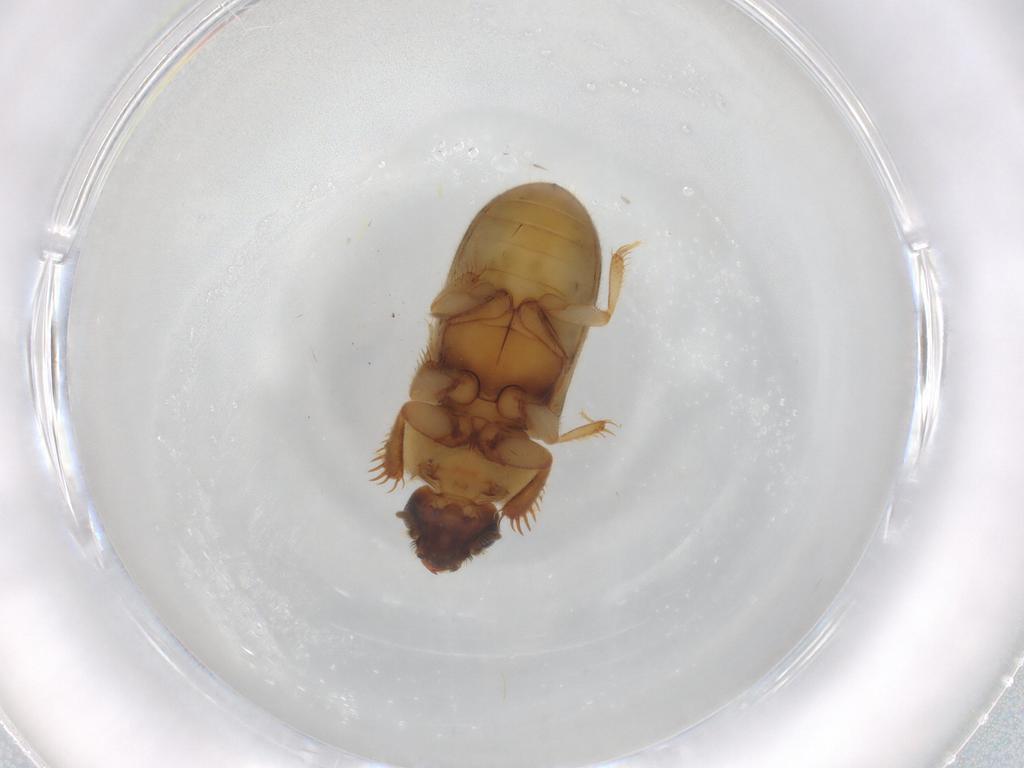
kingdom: Animalia
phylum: Arthropoda
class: Insecta
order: Coleoptera
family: Heteroceridae
